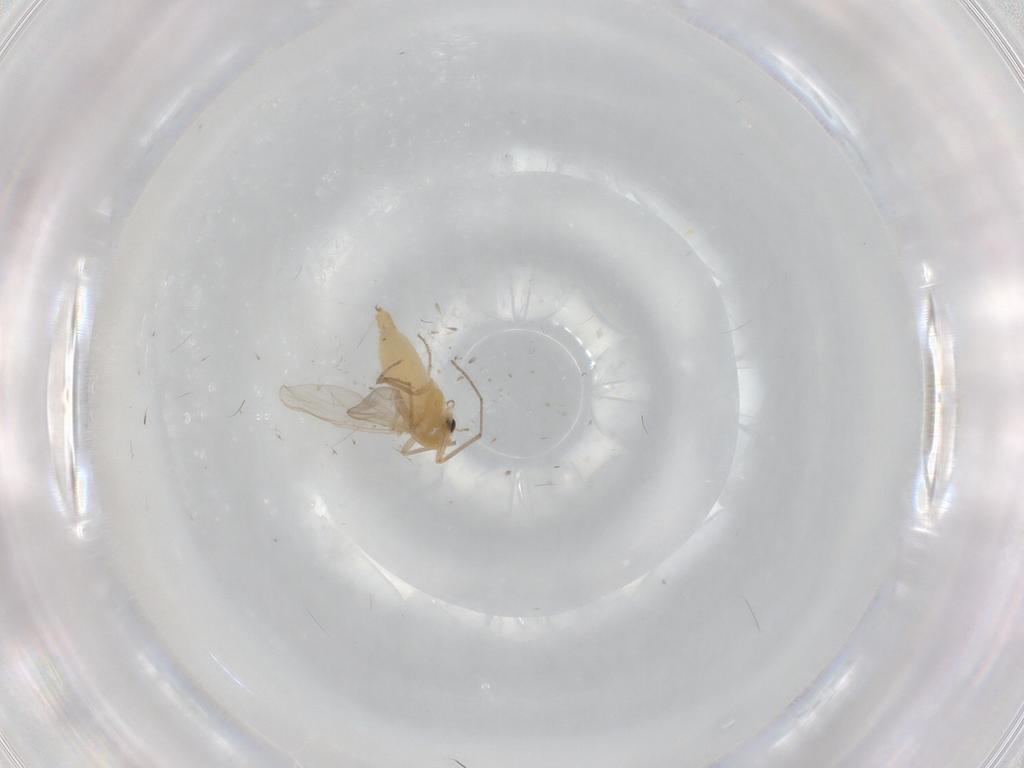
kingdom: Animalia
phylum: Arthropoda
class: Insecta
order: Diptera
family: Chironomidae
